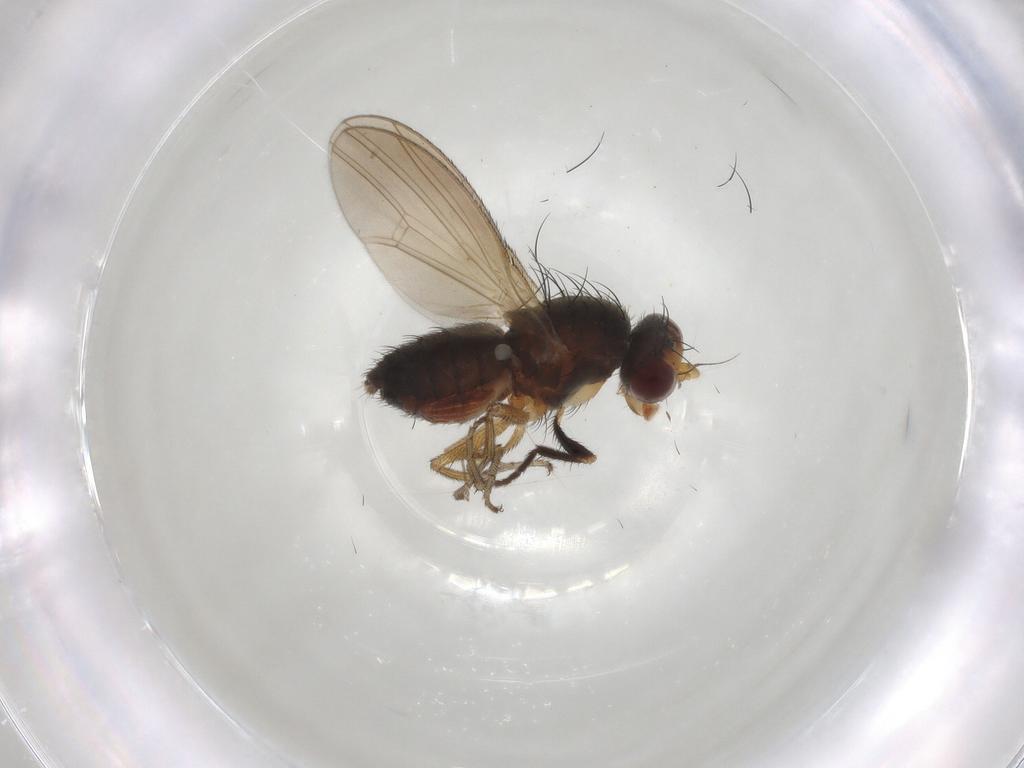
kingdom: Animalia
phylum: Arthropoda
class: Insecta
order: Diptera
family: Heleomyzidae
